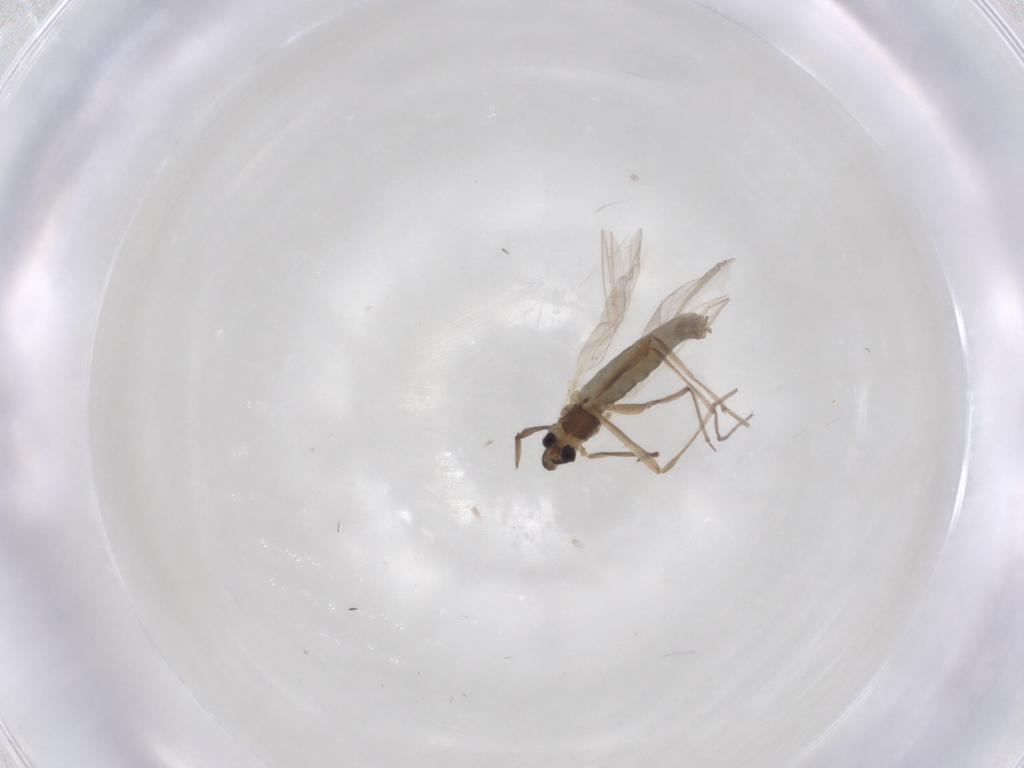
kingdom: Animalia
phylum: Arthropoda
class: Insecta
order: Diptera
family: Chironomidae
